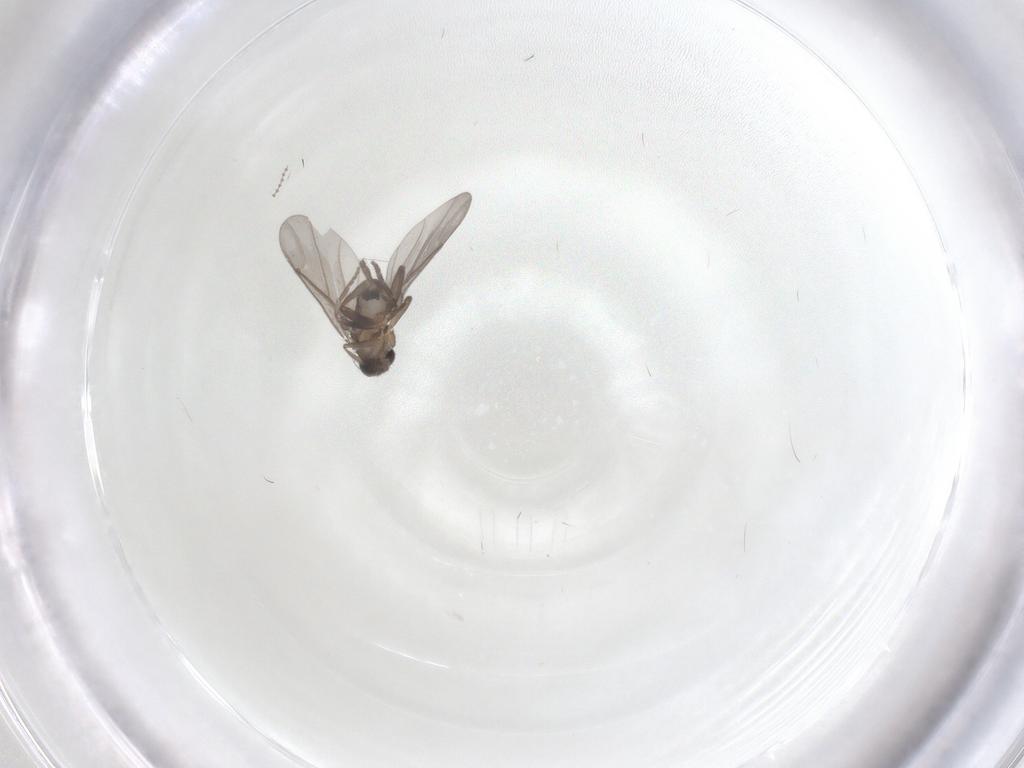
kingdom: Animalia
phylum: Arthropoda
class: Insecta
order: Diptera
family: Phoridae
